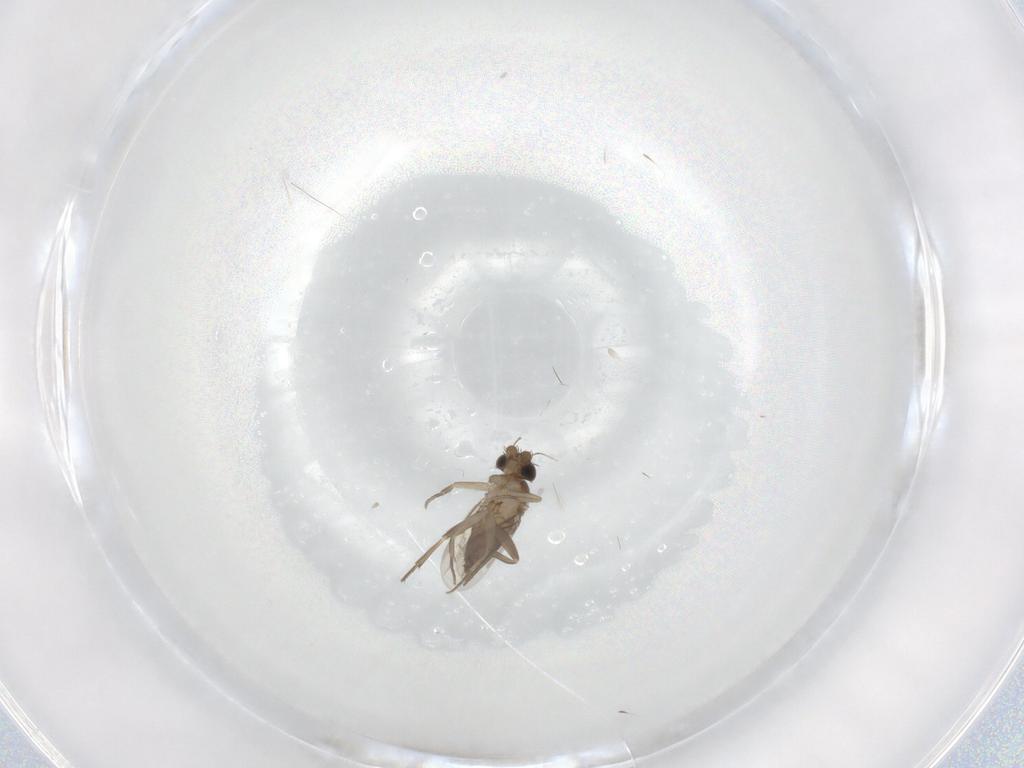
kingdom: Animalia
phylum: Arthropoda
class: Insecta
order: Diptera
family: Phoridae
